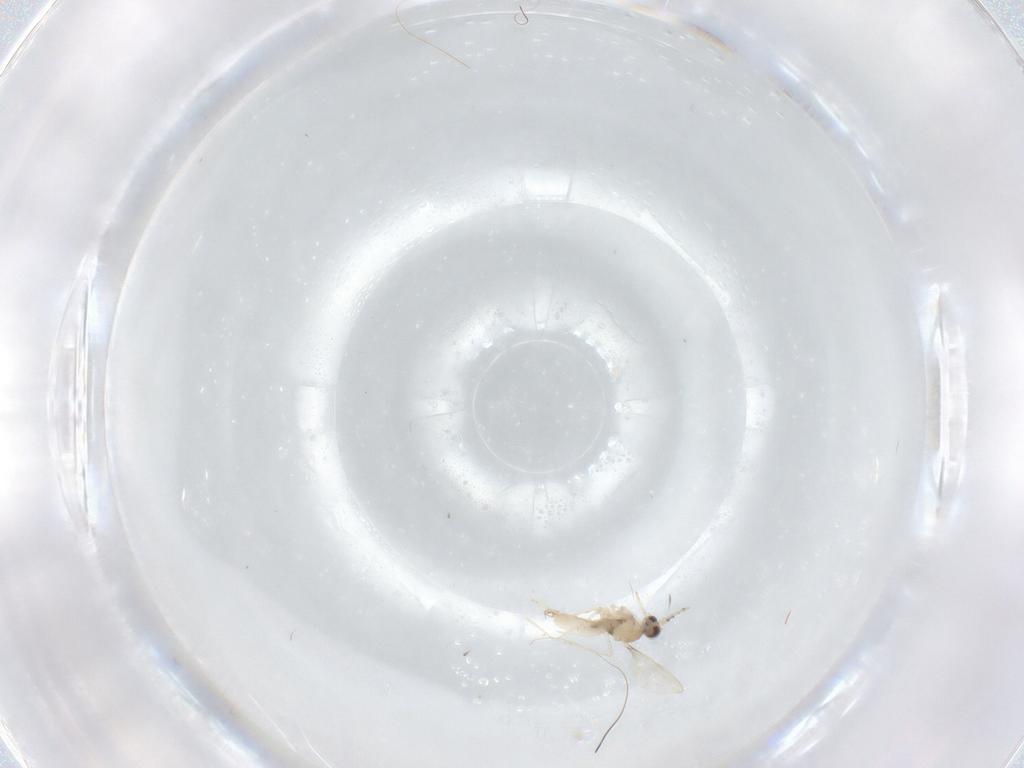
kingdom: Animalia
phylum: Arthropoda
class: Insecta
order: Diptera
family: Cecidomyiidae
